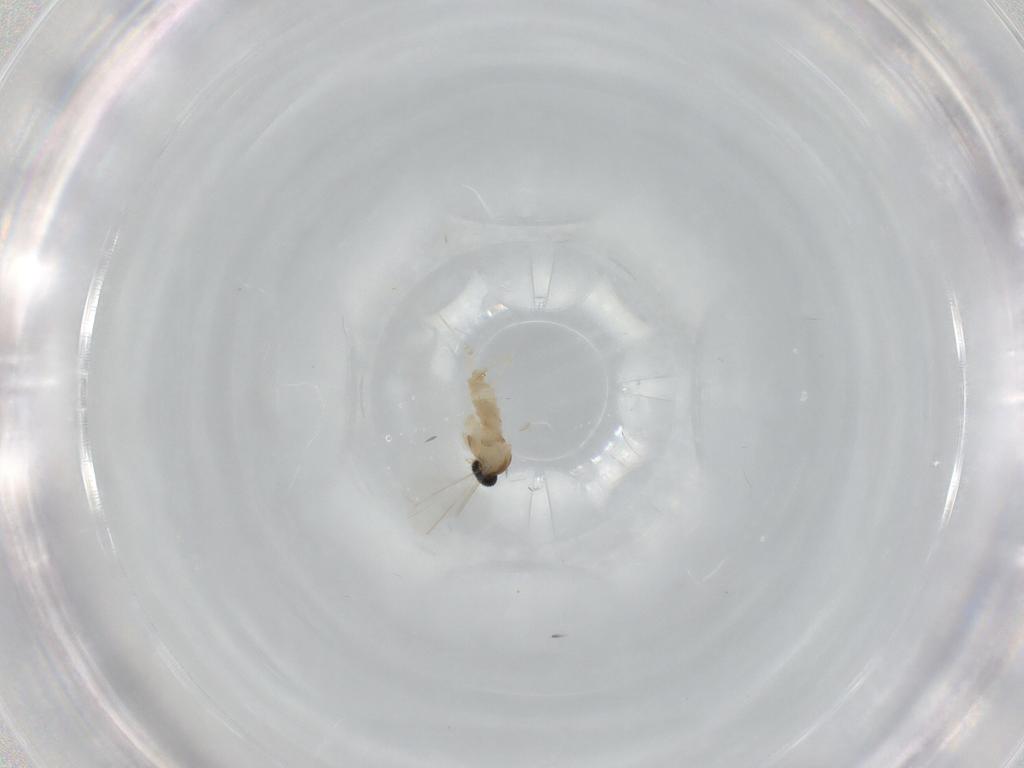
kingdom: Animalia
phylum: Arthropoda
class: Insecta
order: Diptera
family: Cecidomyiidae
